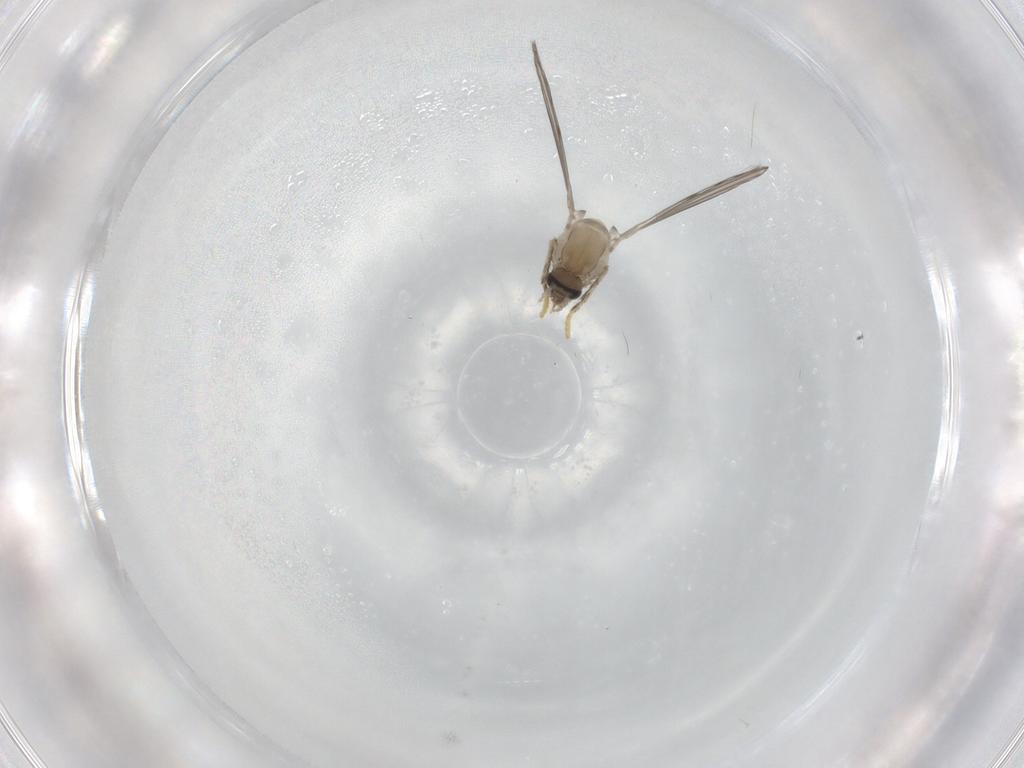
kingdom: Animalia
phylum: Arthropoda
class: Insecta
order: Diptera
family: Psychodidae
